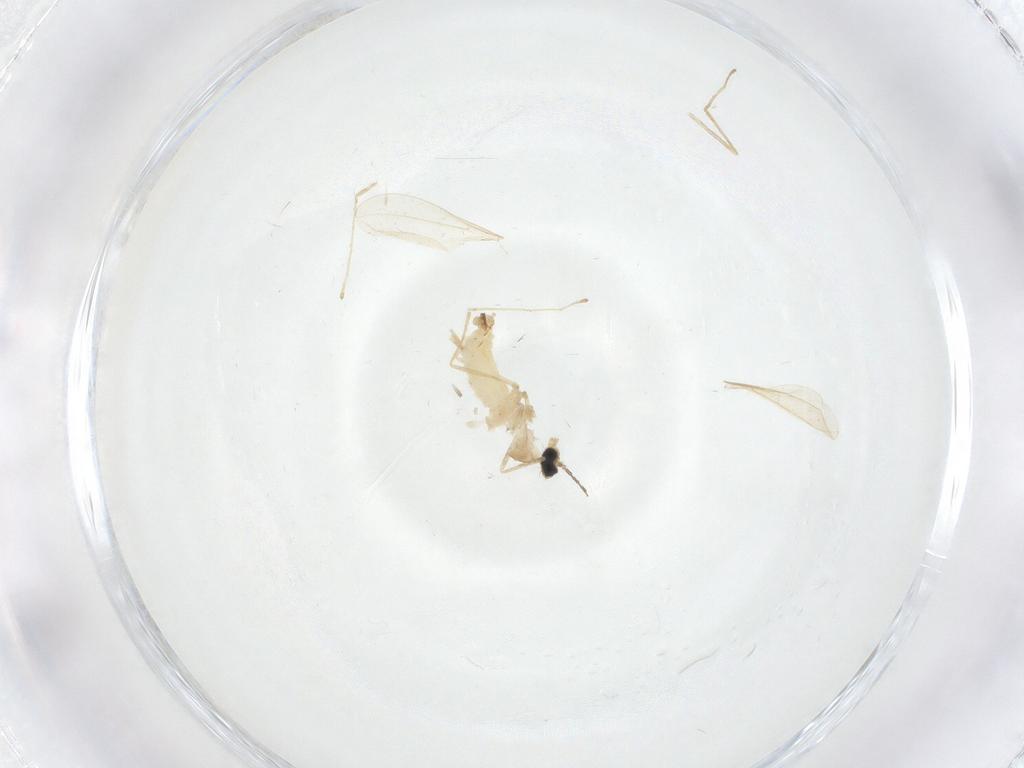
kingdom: Animalia
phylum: Arthropoda
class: Insecta
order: Diptera
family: Cecidomyiidae
